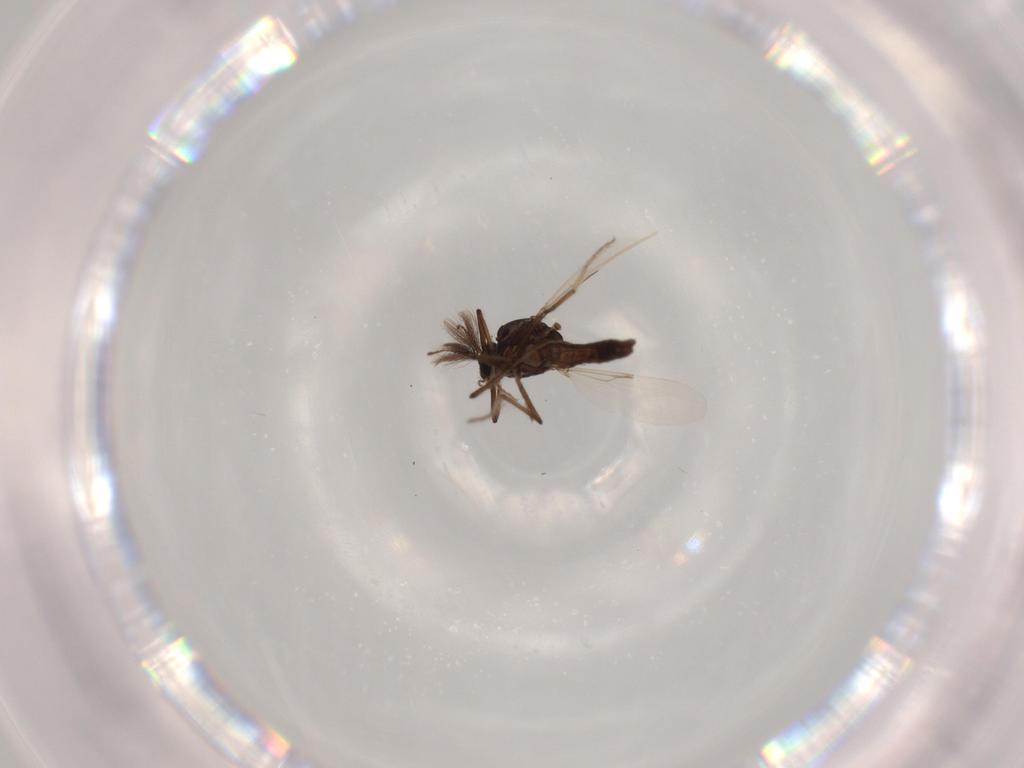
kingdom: Animalia
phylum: Arthropoda
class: Insecta
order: Diptera
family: Chironomidae
